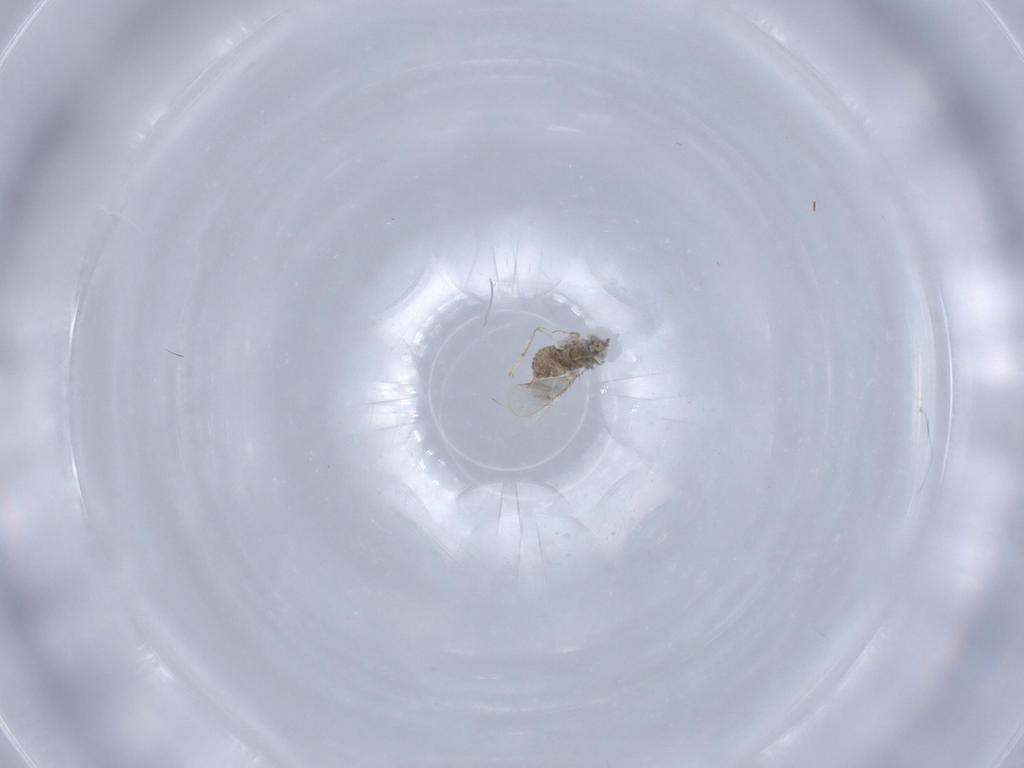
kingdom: Animalia
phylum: Arthropoda
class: Insecta
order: Hymenoptera
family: Aphelinidae
